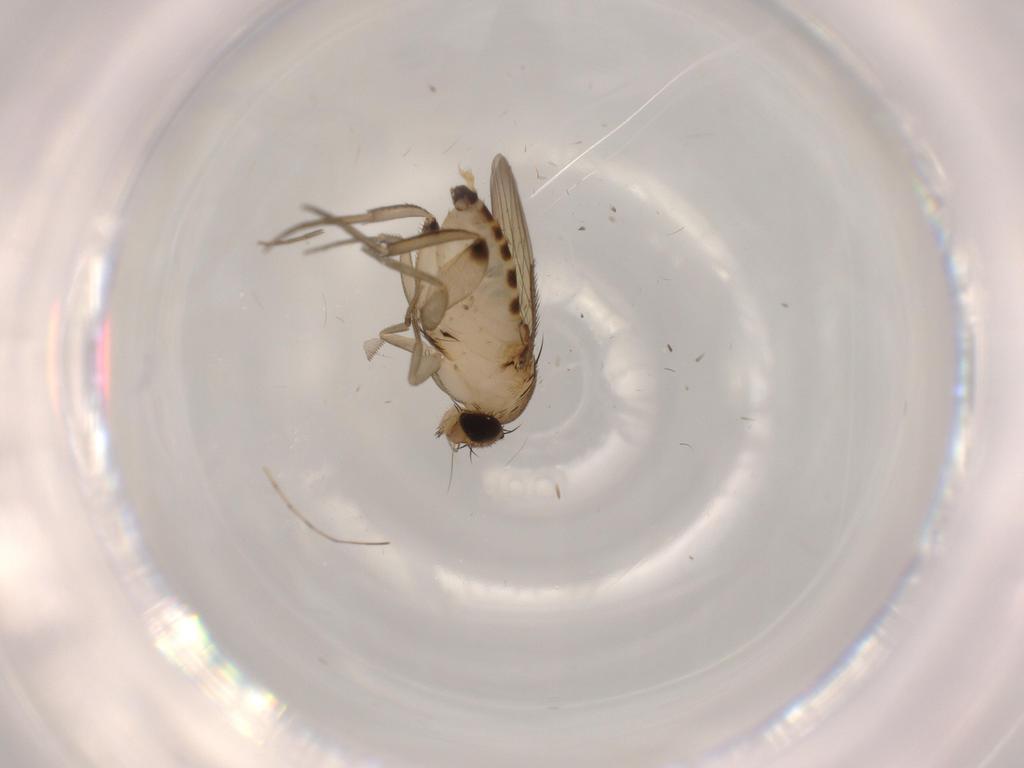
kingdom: Animalia
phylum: Arthropoda
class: Insecta
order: Diptera
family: Phoridae
